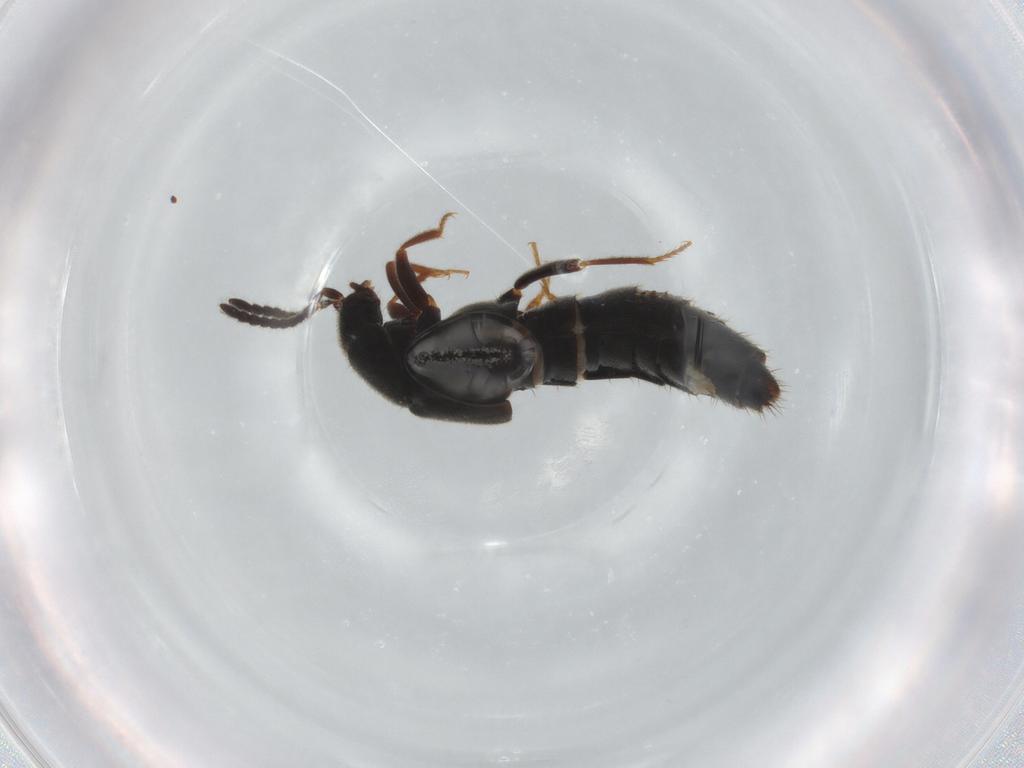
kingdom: Animalia
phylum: Arthropoda
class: Insecta
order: Coleoptera
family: Staphylinidae
